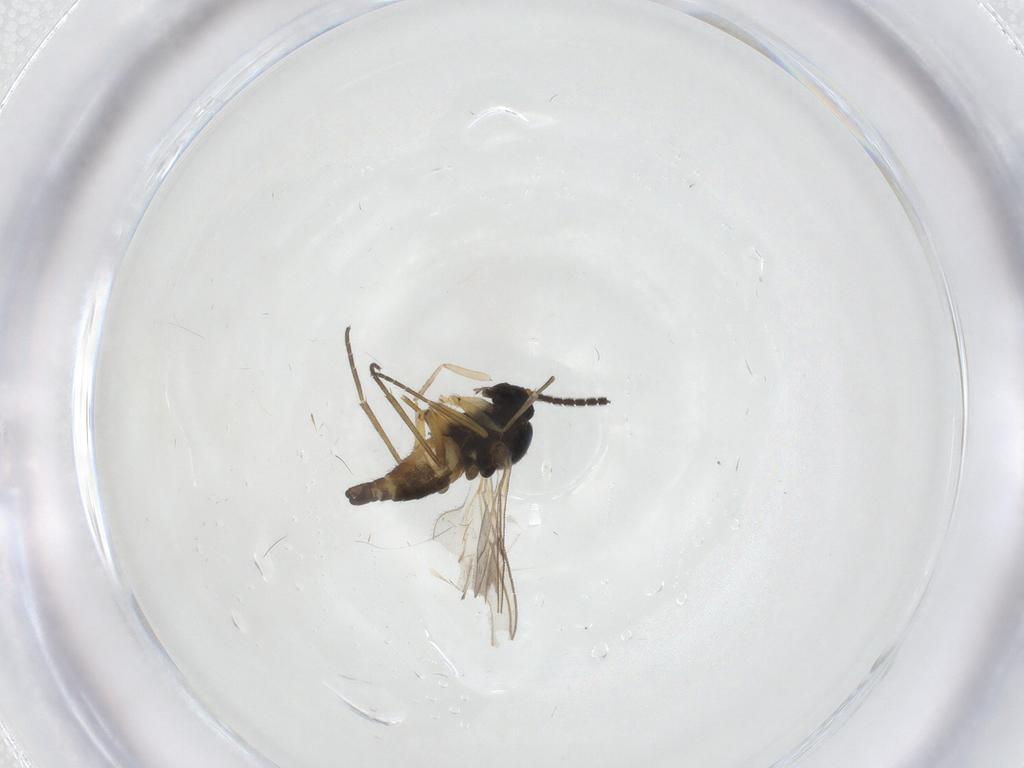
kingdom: Animalia
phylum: Arthropoda
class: Insecta
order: Diptera
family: Sciaridae
